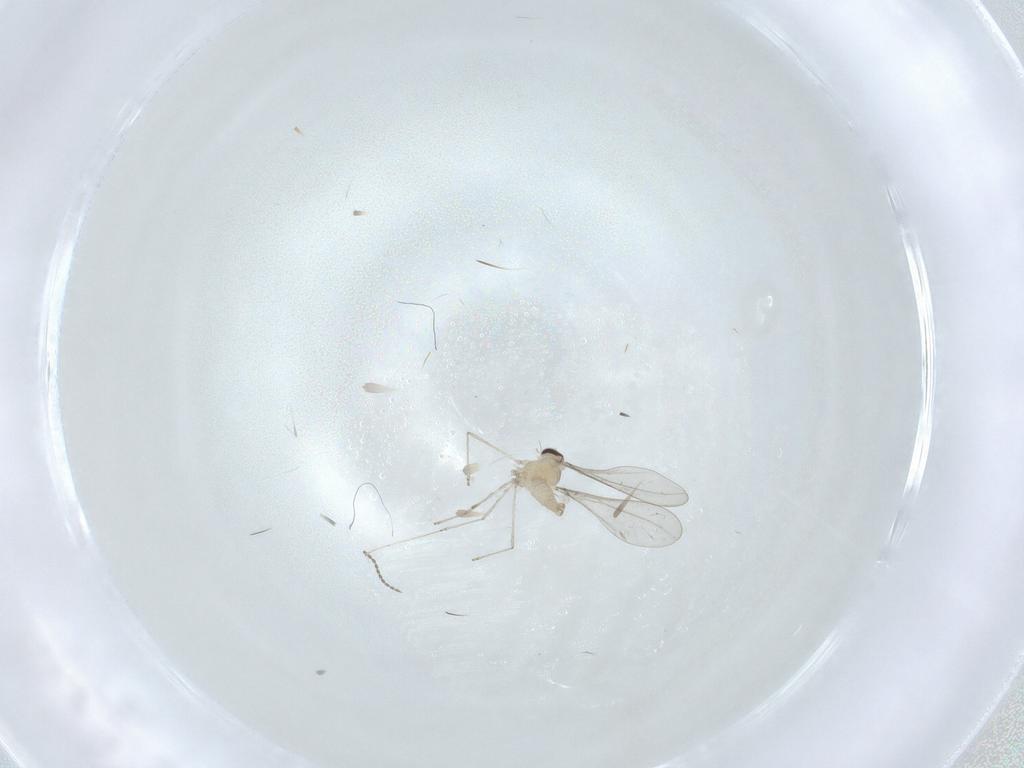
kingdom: Animalia
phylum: Arthropoda
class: Insecta
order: Diptera
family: Cecidomyiidae
